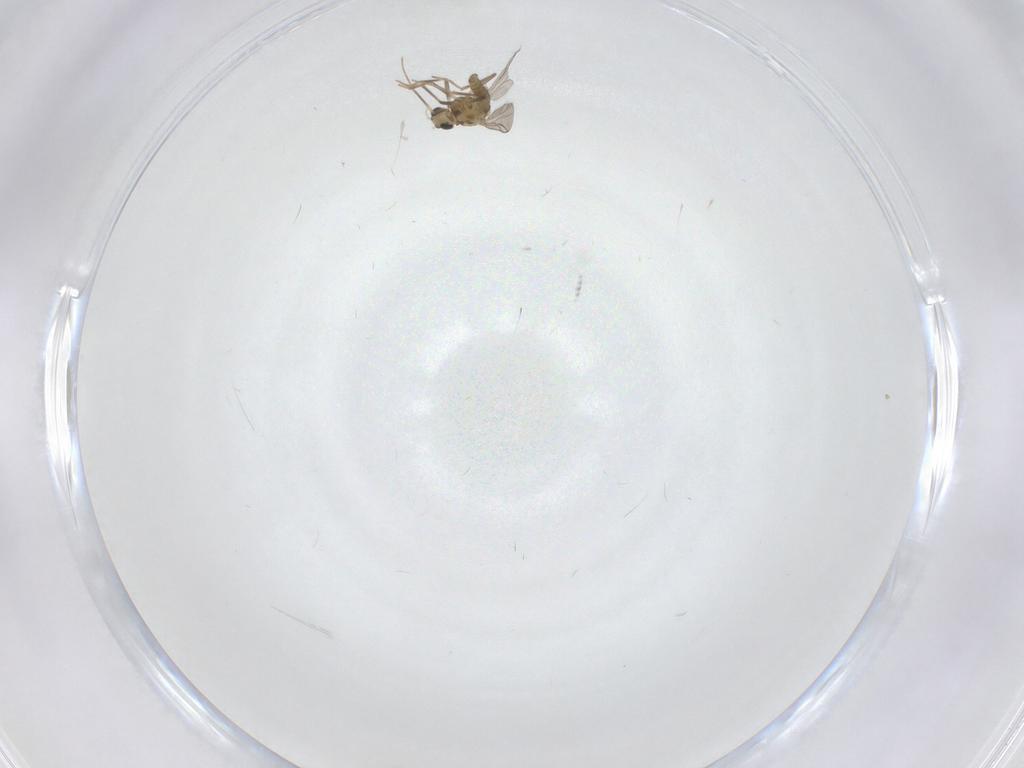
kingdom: Animalia
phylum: Arthropoda
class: Insecta
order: Diptera
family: Chironomidae
